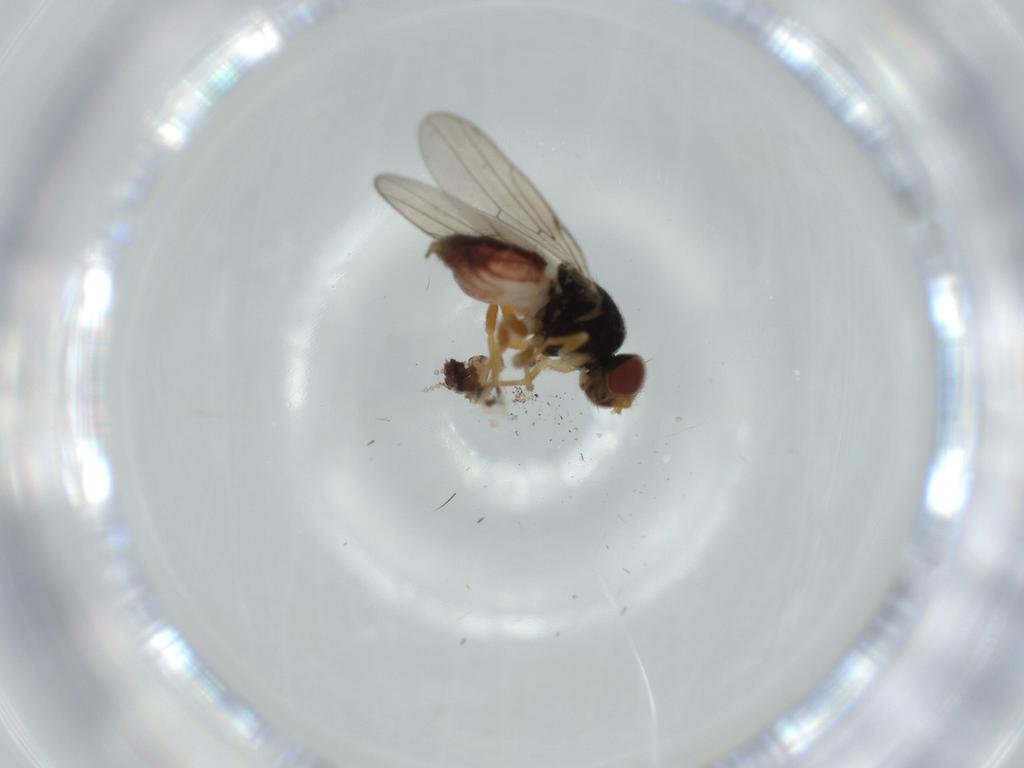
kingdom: Animalia
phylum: Arthropoda
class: Insecta
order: Diptera
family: Chloropidae
